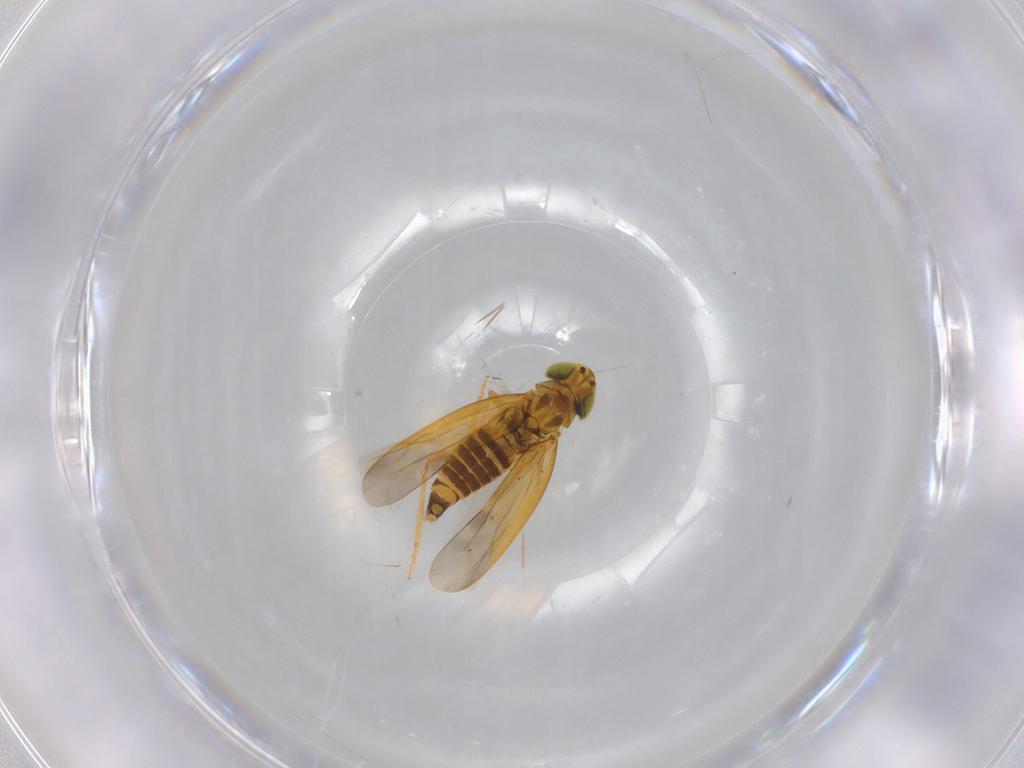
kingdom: Animalia
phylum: Arthropoda
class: Insecta
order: Hemiptera
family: Cicadellidae
